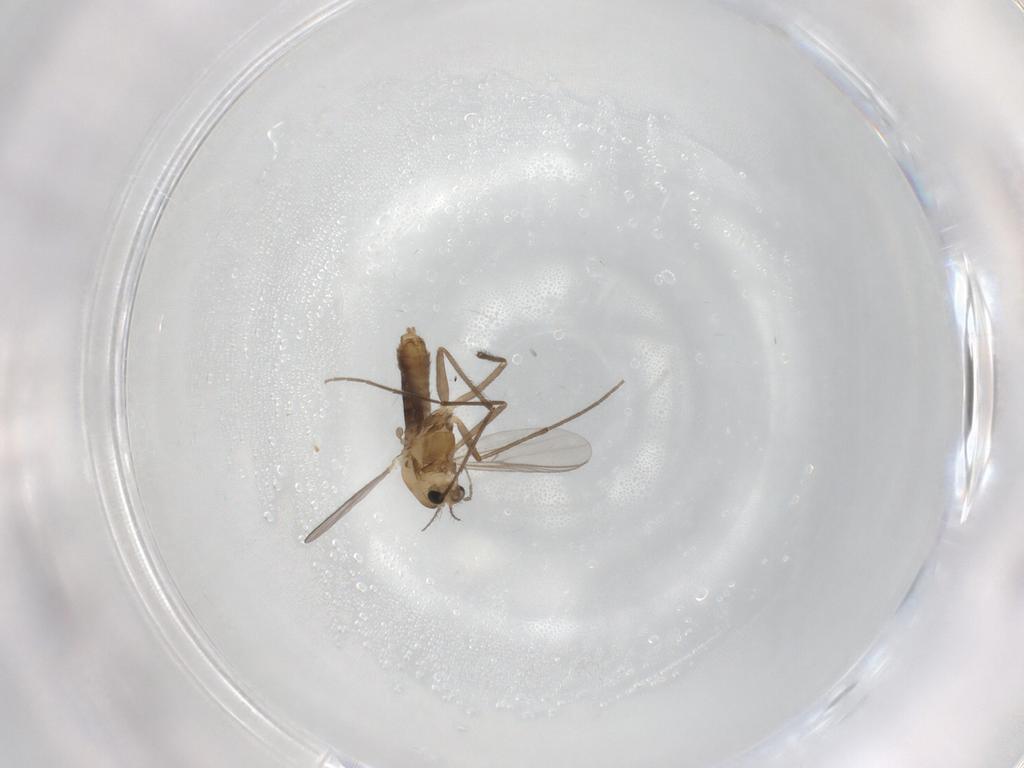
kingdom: Animalia
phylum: Arthropoda
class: Insecta
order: Diptera
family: Chironomidae
